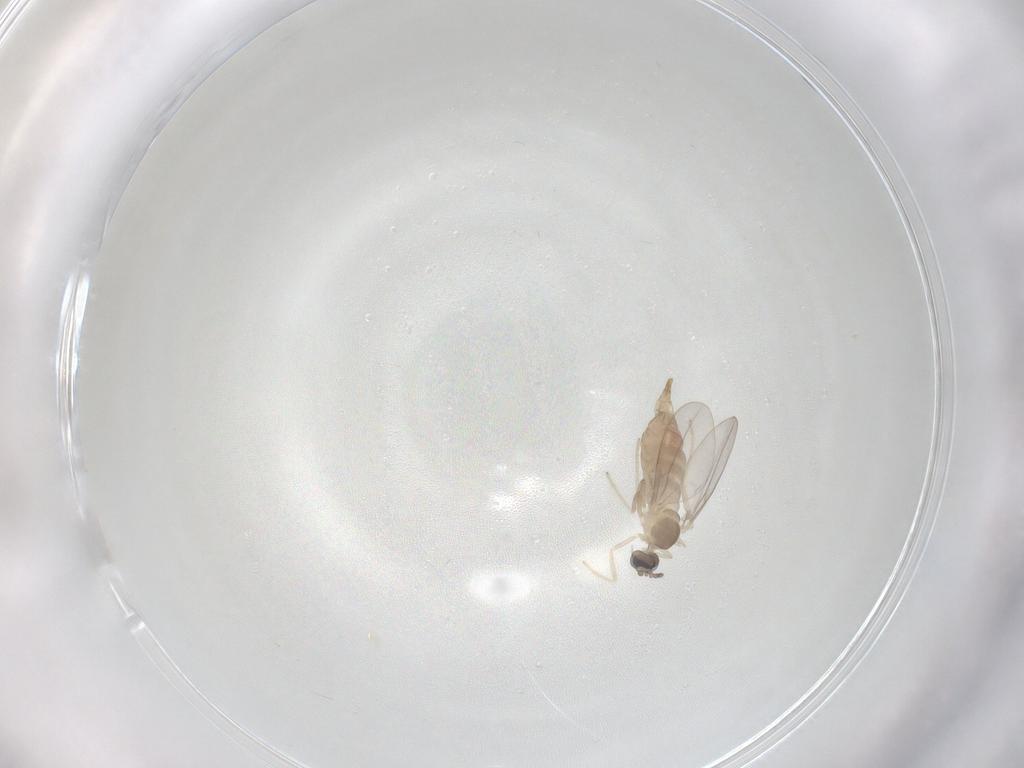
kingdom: Animalia
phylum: Arthropoda
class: Insecta
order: Diptera
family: Cecidomyiidae
